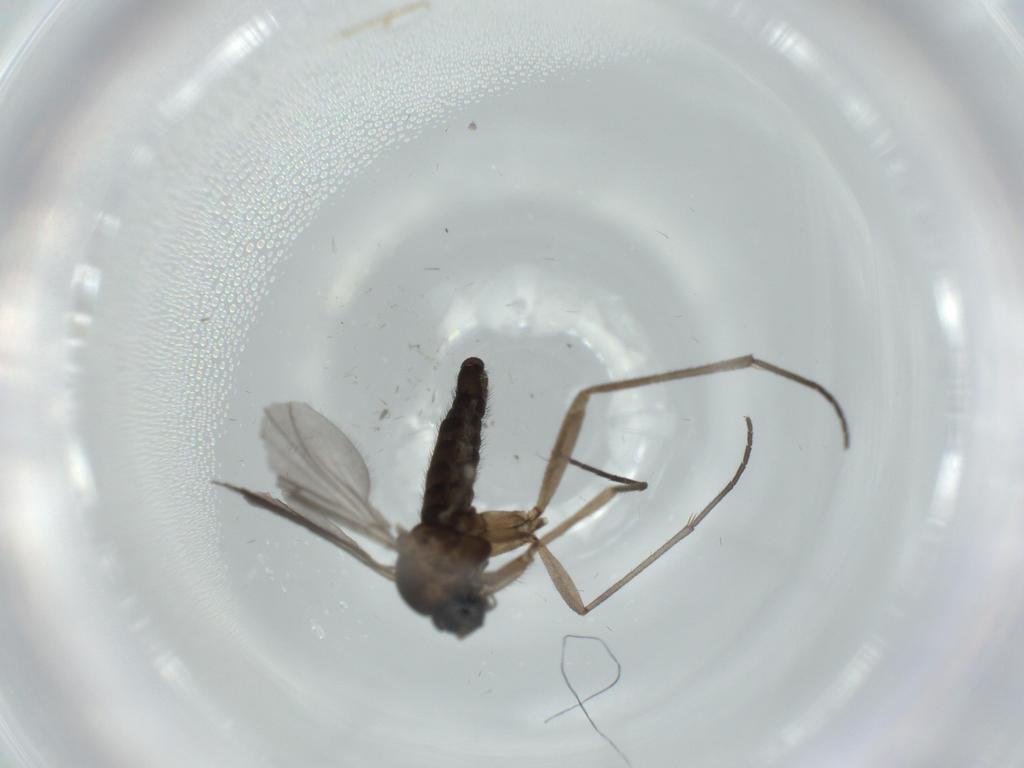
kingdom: Animalia
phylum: Arthropoda
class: Insecta
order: Diptera
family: Sciaridae
